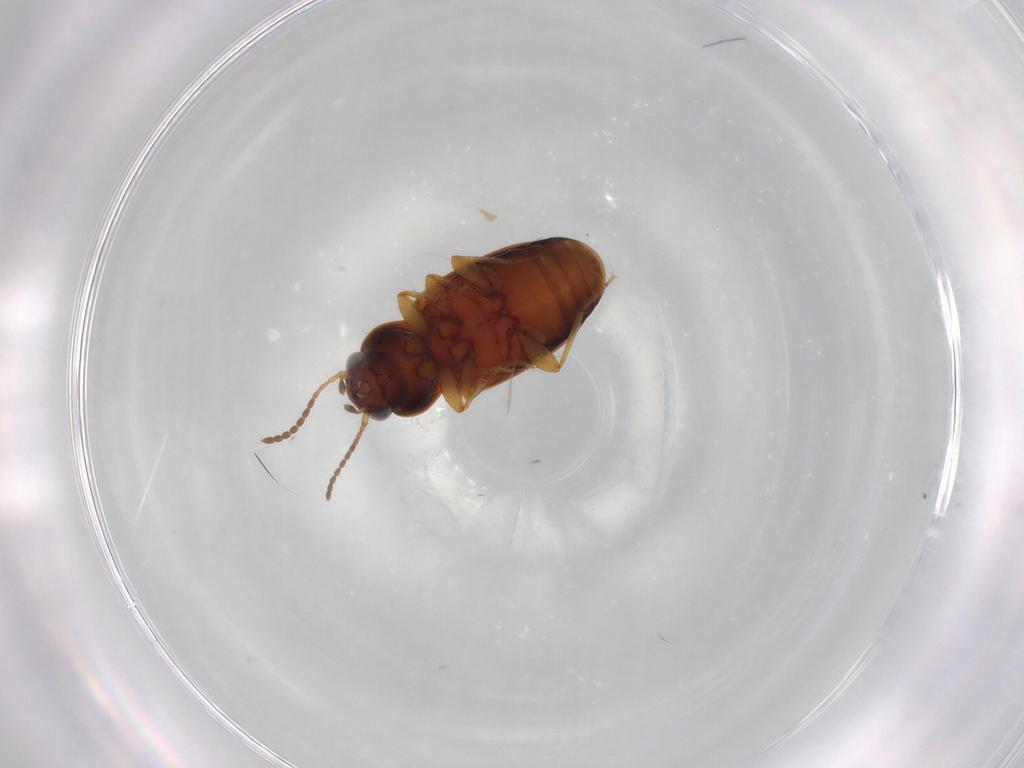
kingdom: Animalia
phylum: Arthropoda
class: Insecta
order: Coleoptera
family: Carabidae
